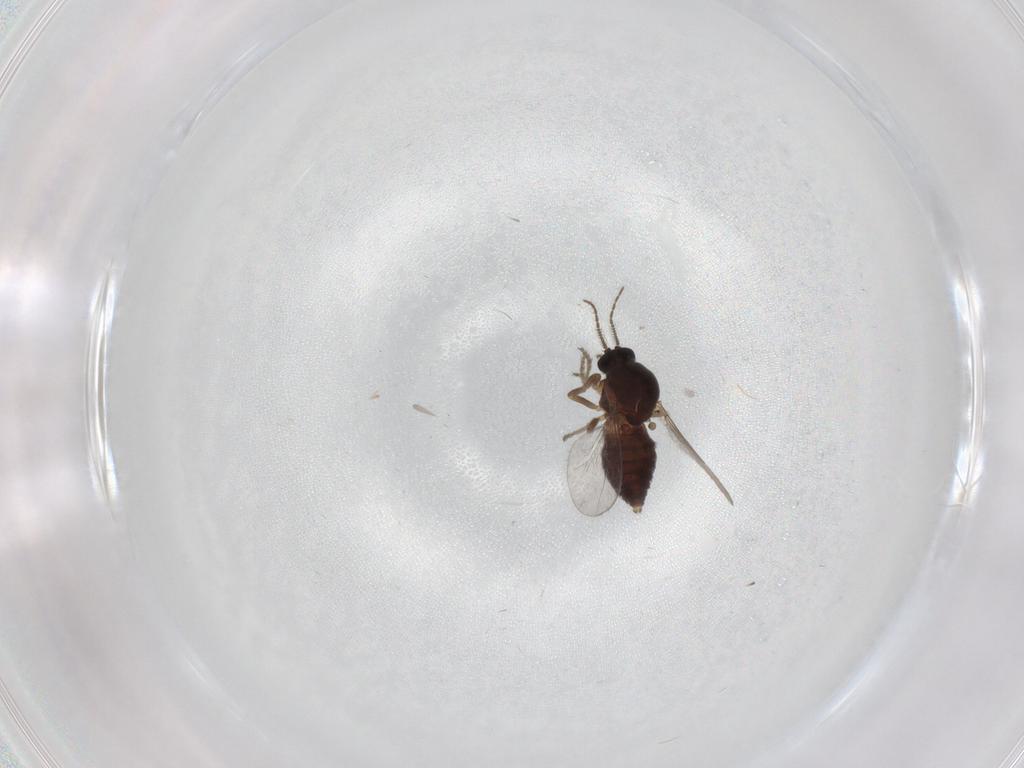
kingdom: Animalia
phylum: Arthropoda
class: Insecta
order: Diptera
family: Ceratopogonidae
